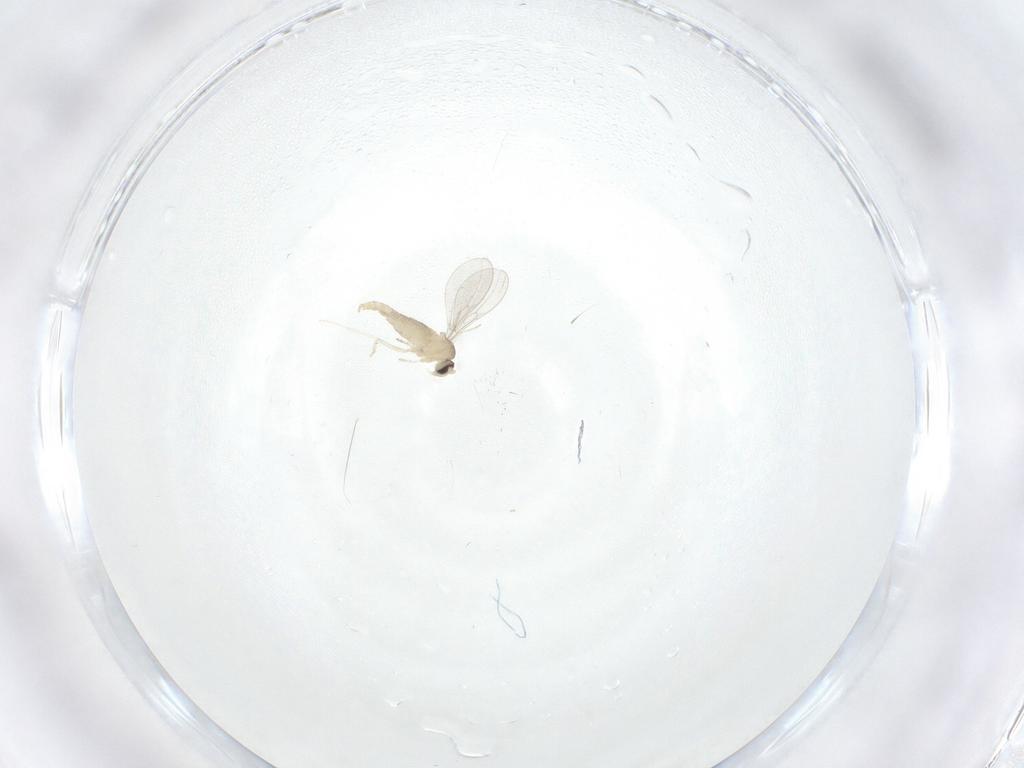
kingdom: Animalia
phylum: Arthropoda
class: Insecta
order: Diptera
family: Cecidomyiidae
